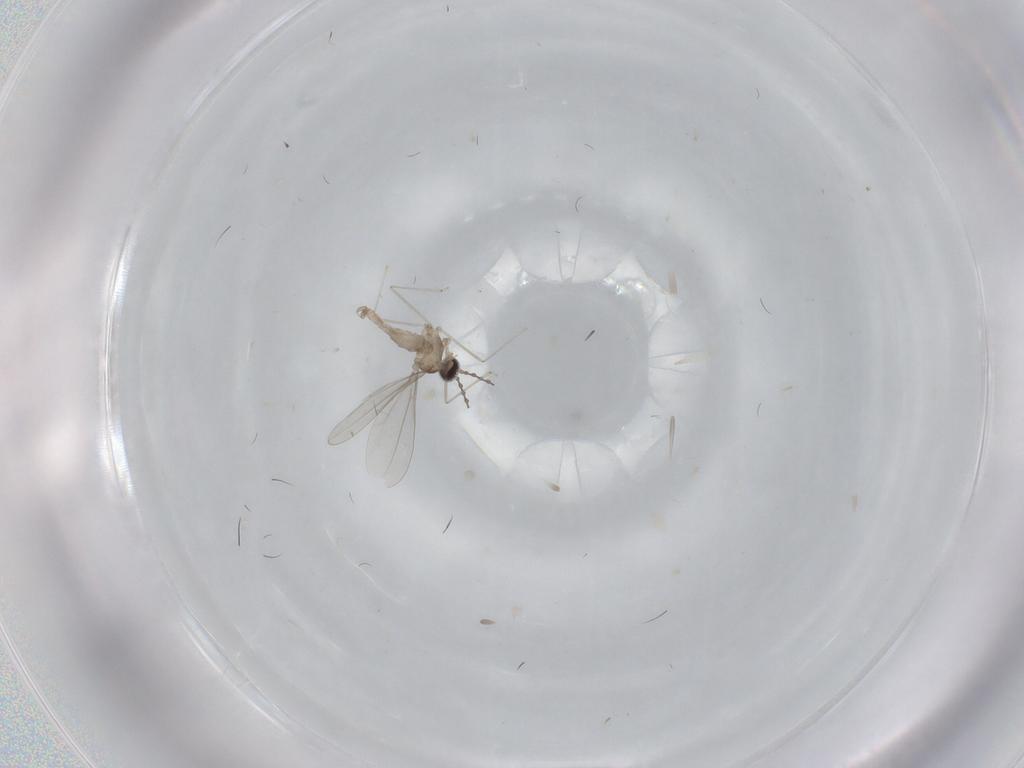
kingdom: Animalia
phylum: Arthropoda
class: Insecta
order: Diptera
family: Cecidomyiidae
